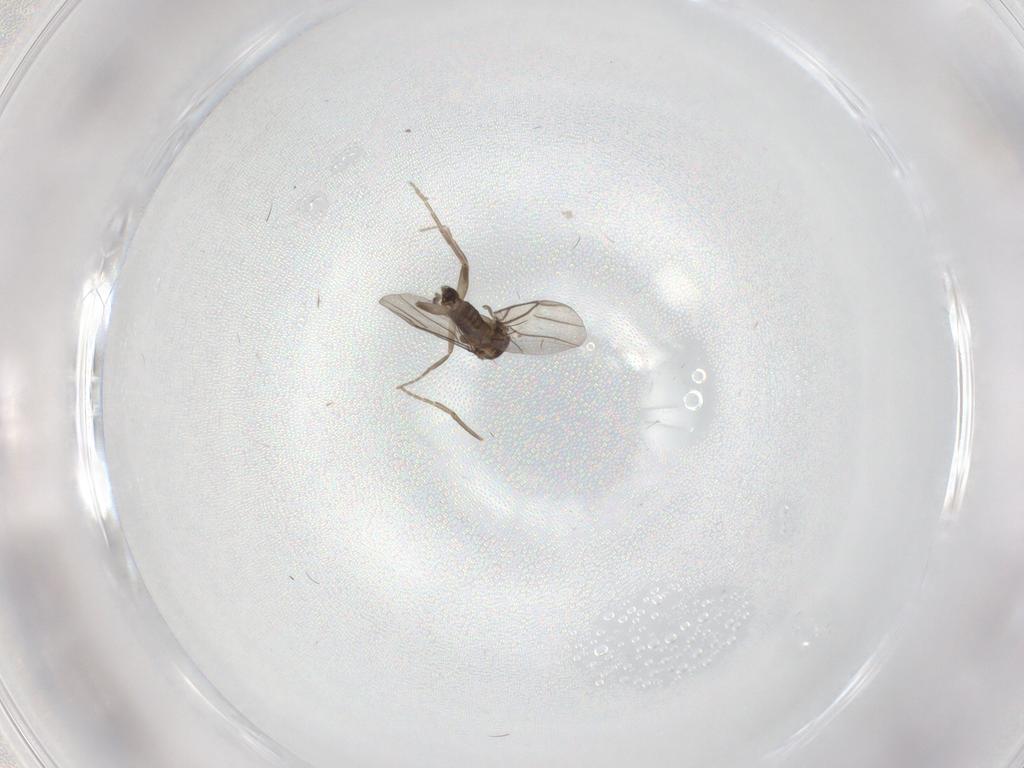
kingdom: Animalia
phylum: Arthropoda
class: Insecta
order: Diptera
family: Phoridae
